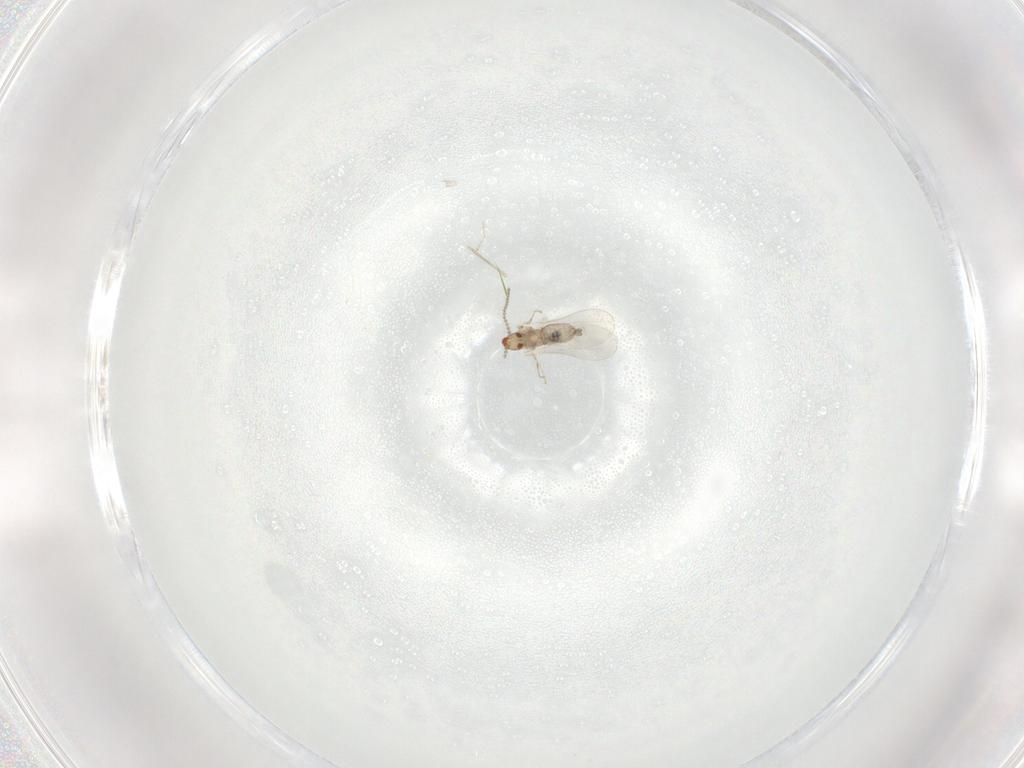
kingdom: Animalia
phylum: Arthropoda
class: Insecta
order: Diptera
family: Cecidomyiidae
